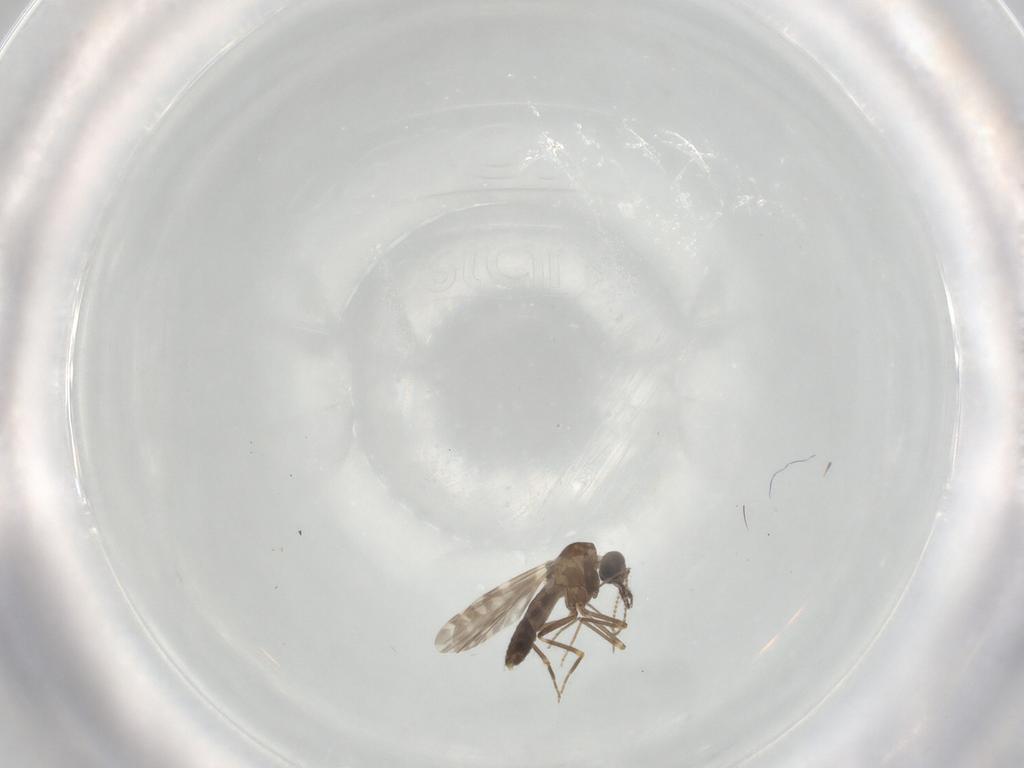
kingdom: Animalia
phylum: Arthropoda
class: Insecta
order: Diptera
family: Ceratopogonidae
